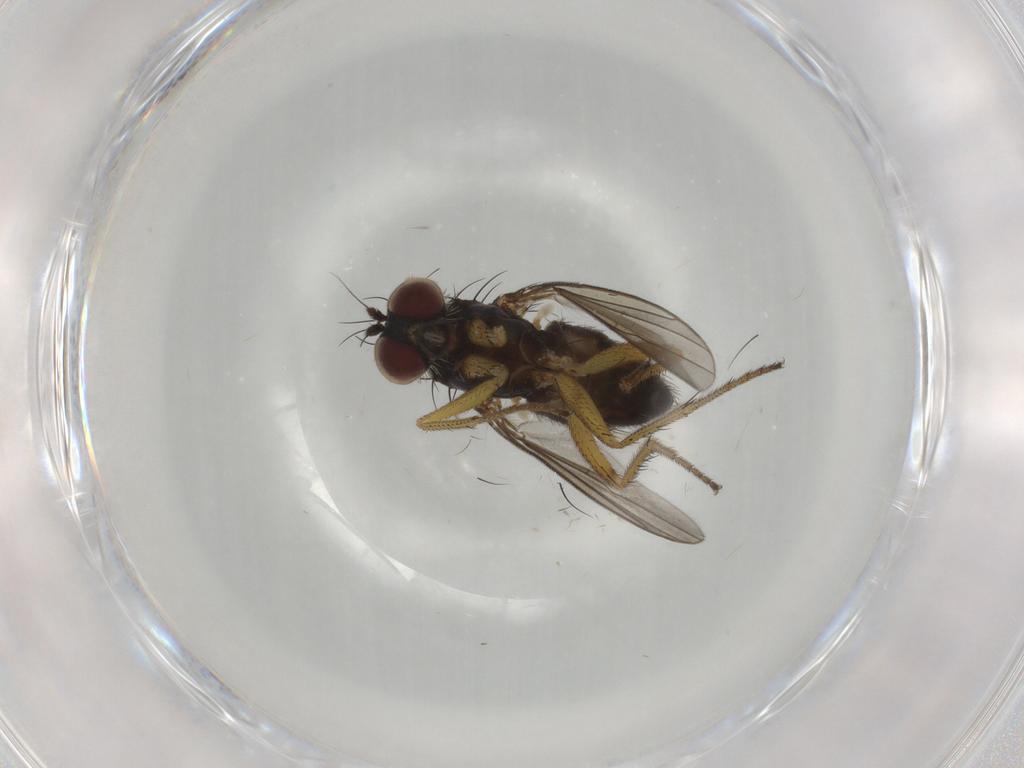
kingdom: Animalia
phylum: Arthropoda
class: Insecta
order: Diptera
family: Dolichopodidae
